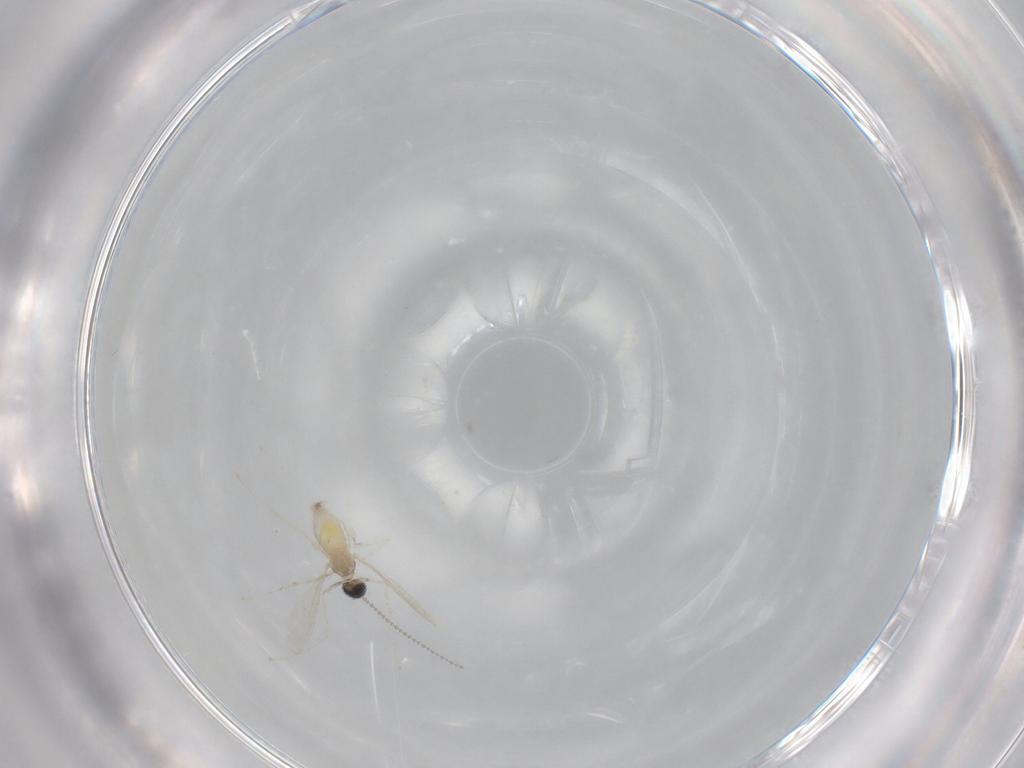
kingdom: Animalia
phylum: Arthropoda
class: Insecta
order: Diptera
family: Cecidomyiidae
